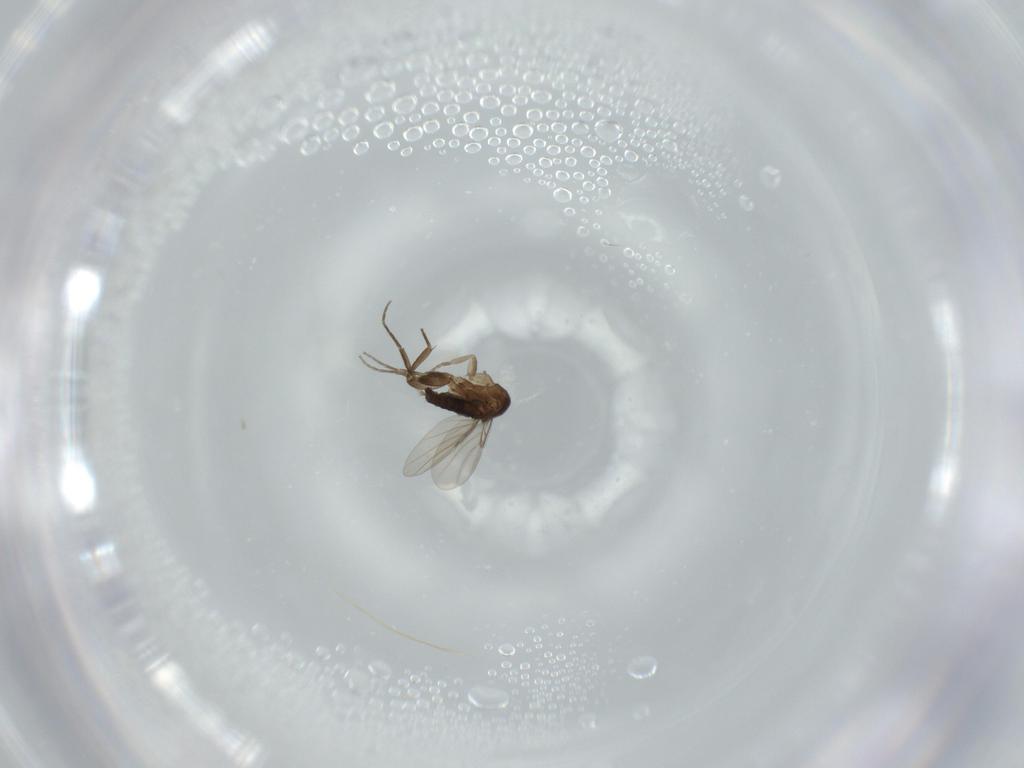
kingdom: Animalia
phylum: Arthropoda
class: Insecta
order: Diptera
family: Phoridae
